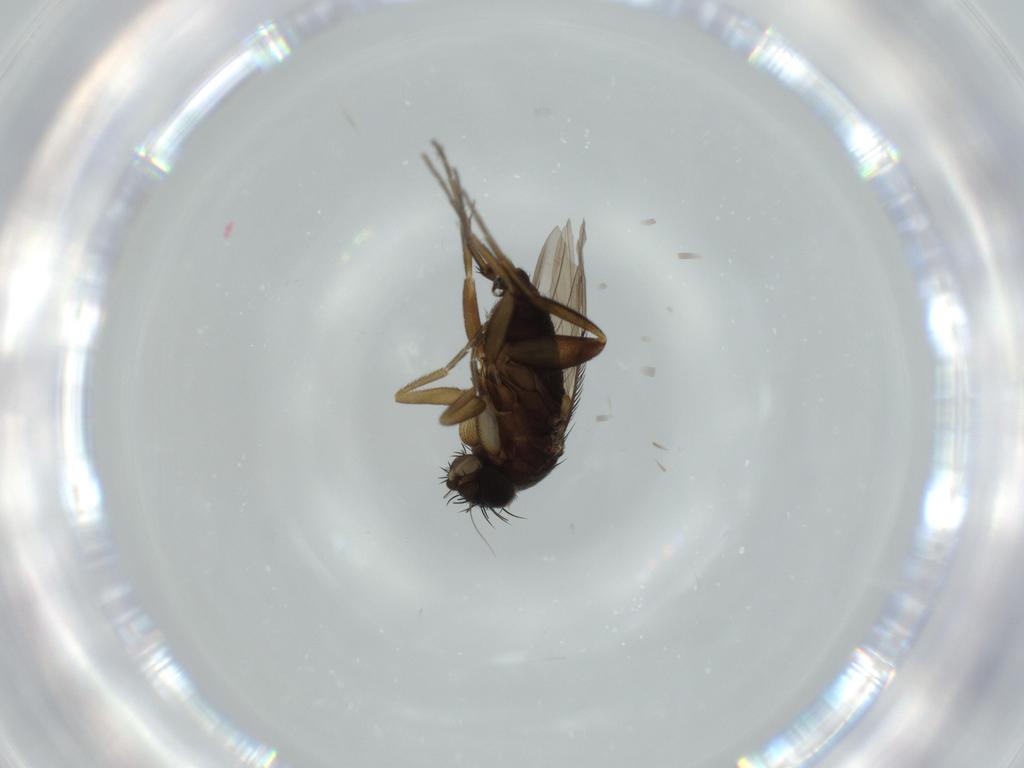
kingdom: Animalia
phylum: Arthropoda
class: Insecta
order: Diptera
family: Phoridae
